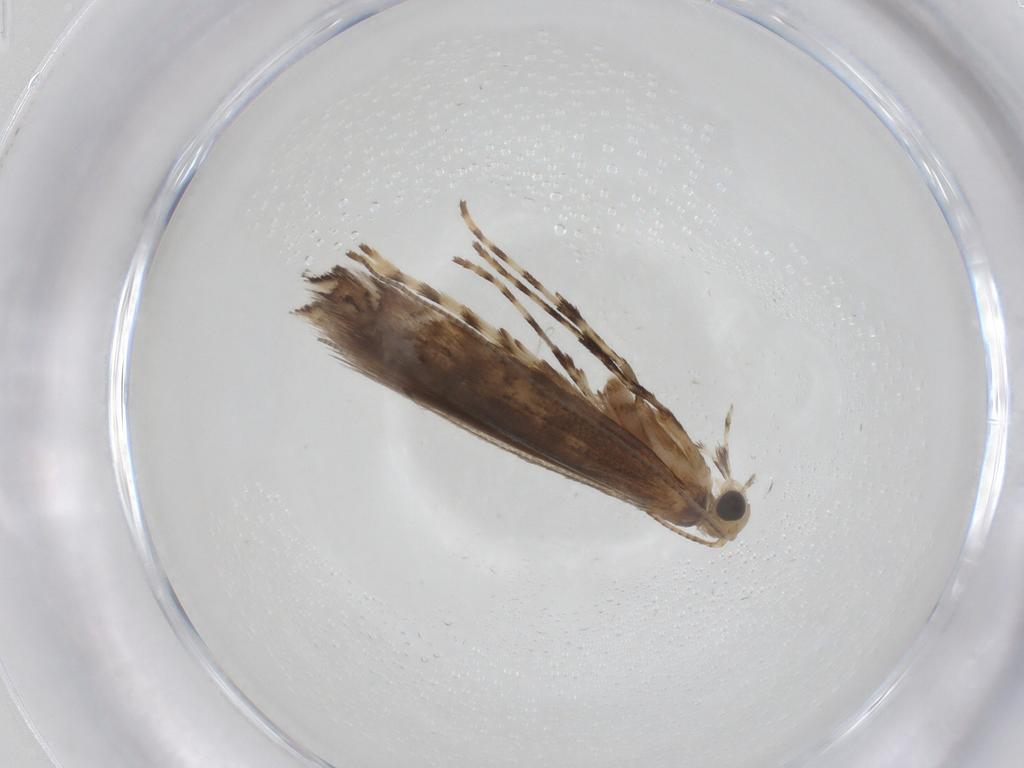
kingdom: Animalia
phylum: Arthropoda
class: Insecta
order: Lepidoptera
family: Gracillariidae
